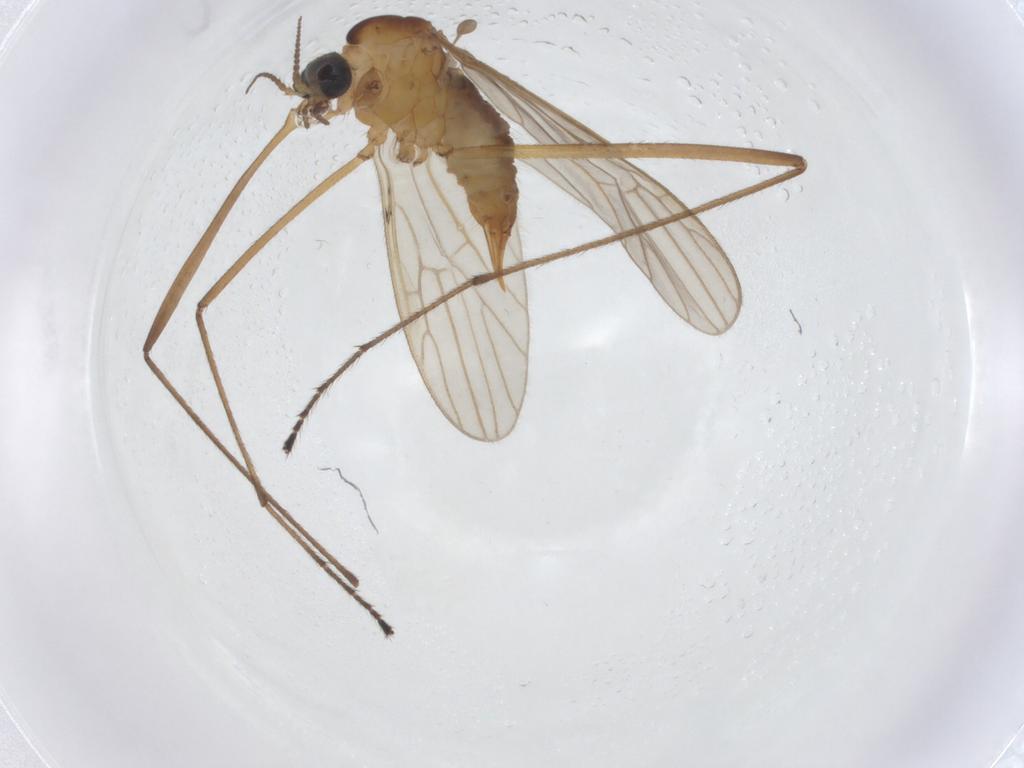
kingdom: Animalia
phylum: Arthropoda
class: Insecta
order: Diptera
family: Limoniidae
